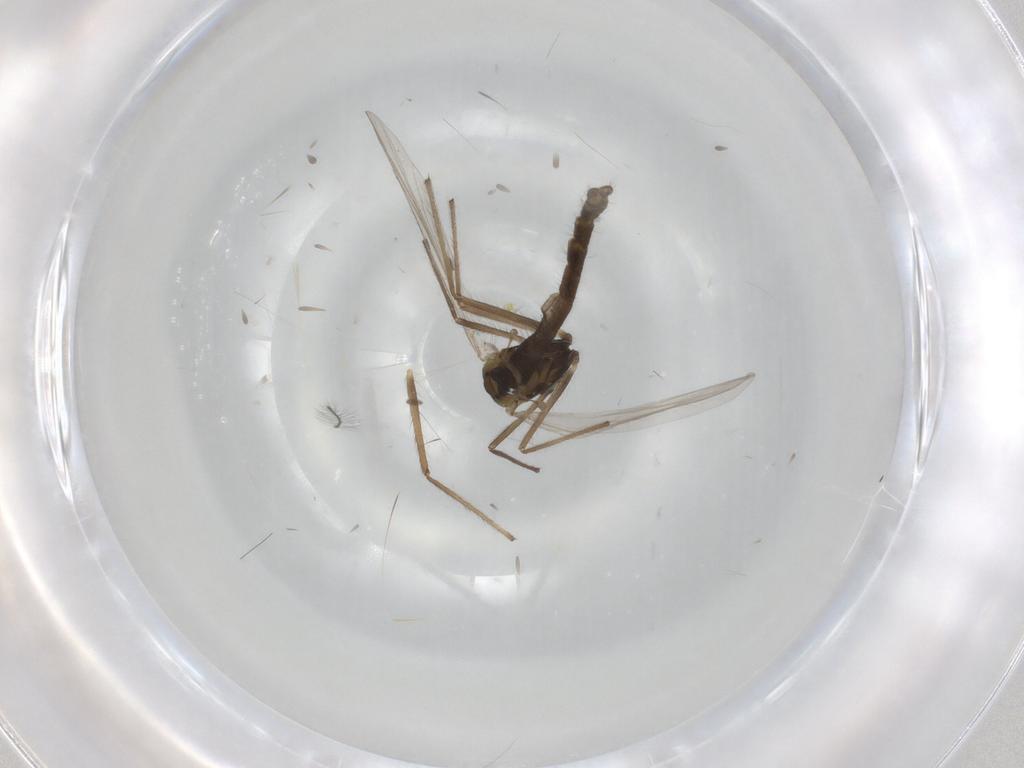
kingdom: Animalia
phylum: Arthropoda
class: Insecta
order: Diptera
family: Chironomidae
